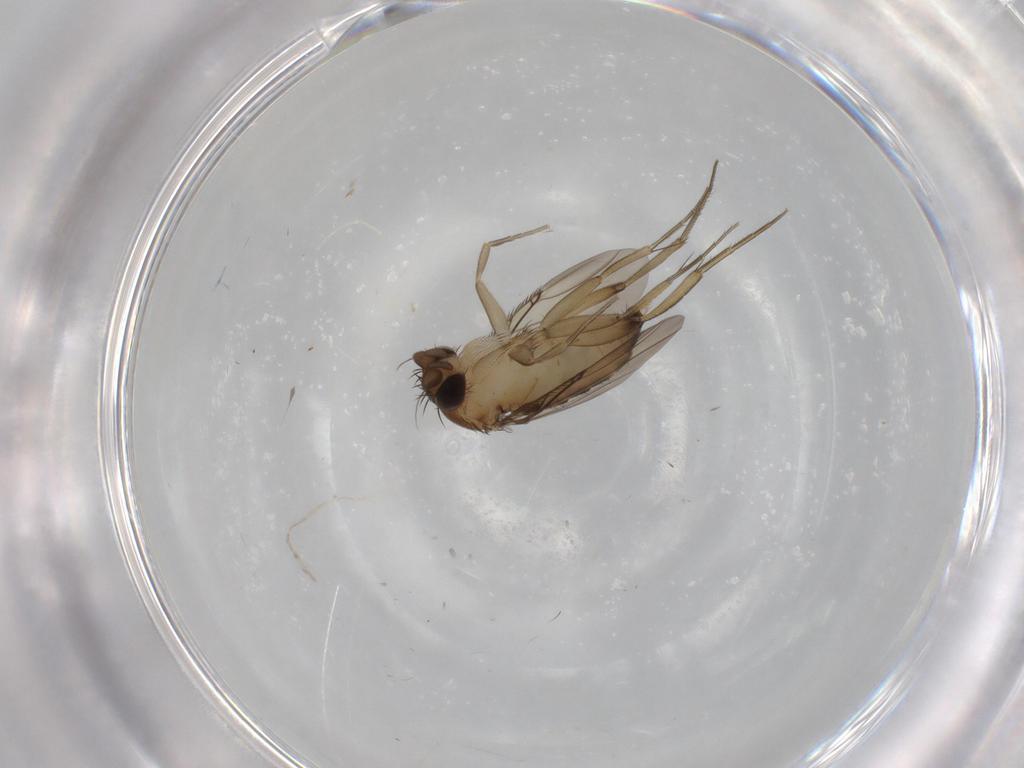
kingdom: Animalia
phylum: Arthropoda
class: Insecta
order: Diptera
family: Phoridae
